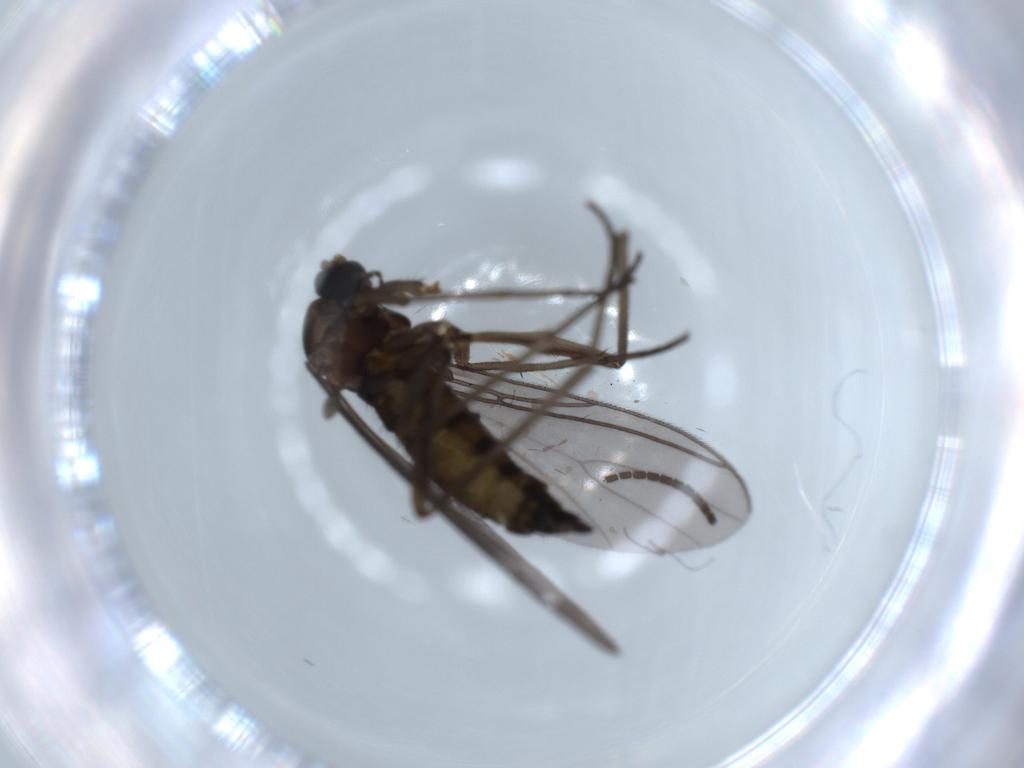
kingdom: Animalia
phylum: Arthropoda
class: Insecta
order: Diptera
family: Sciaridae
